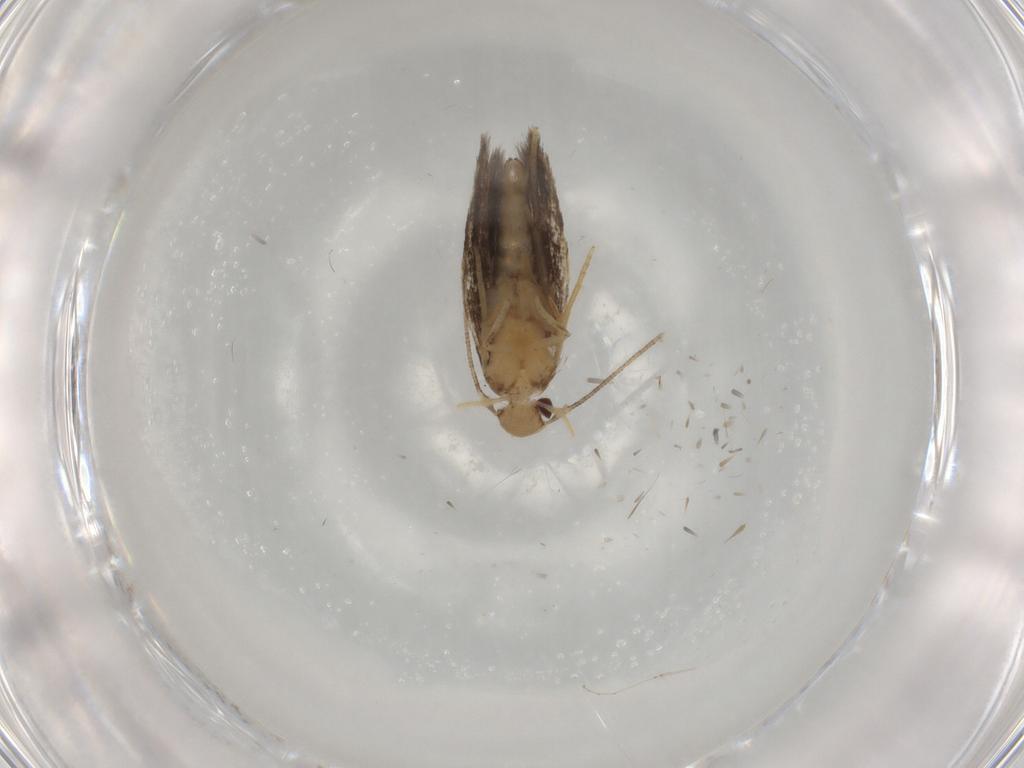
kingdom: Animalia
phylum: Arthropoda
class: Insecta
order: Lepidoptera
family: Gelechiidae
